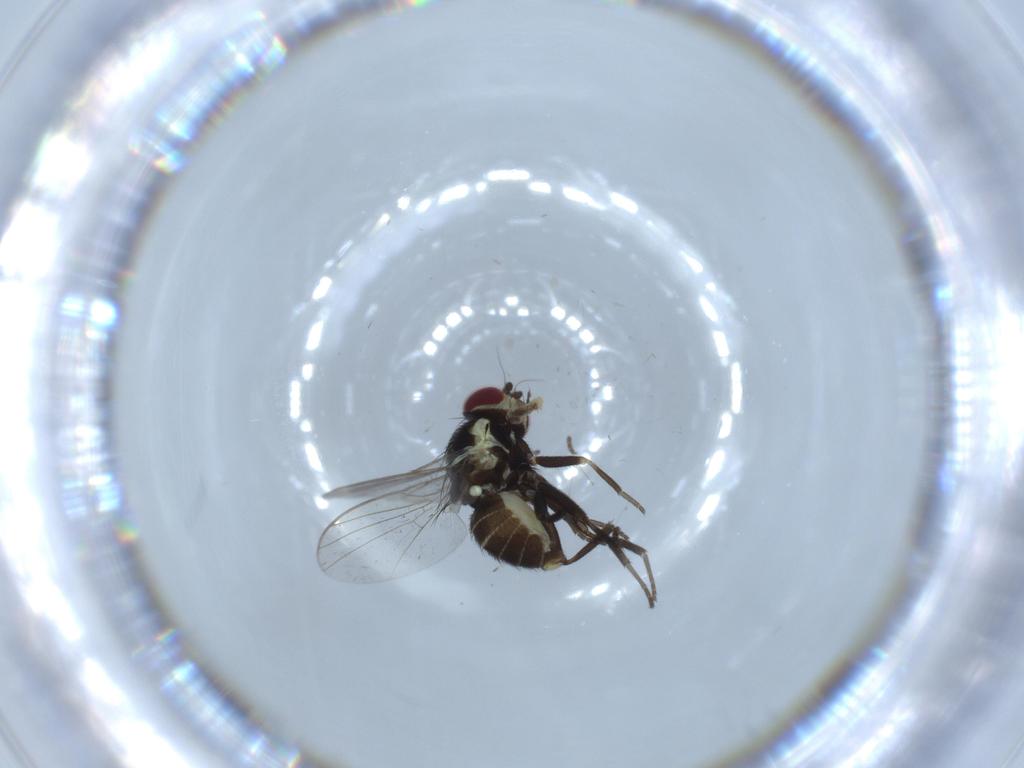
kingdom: Animalia
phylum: Arthropoda
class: Insecta
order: Diptera
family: Agromyzidae
